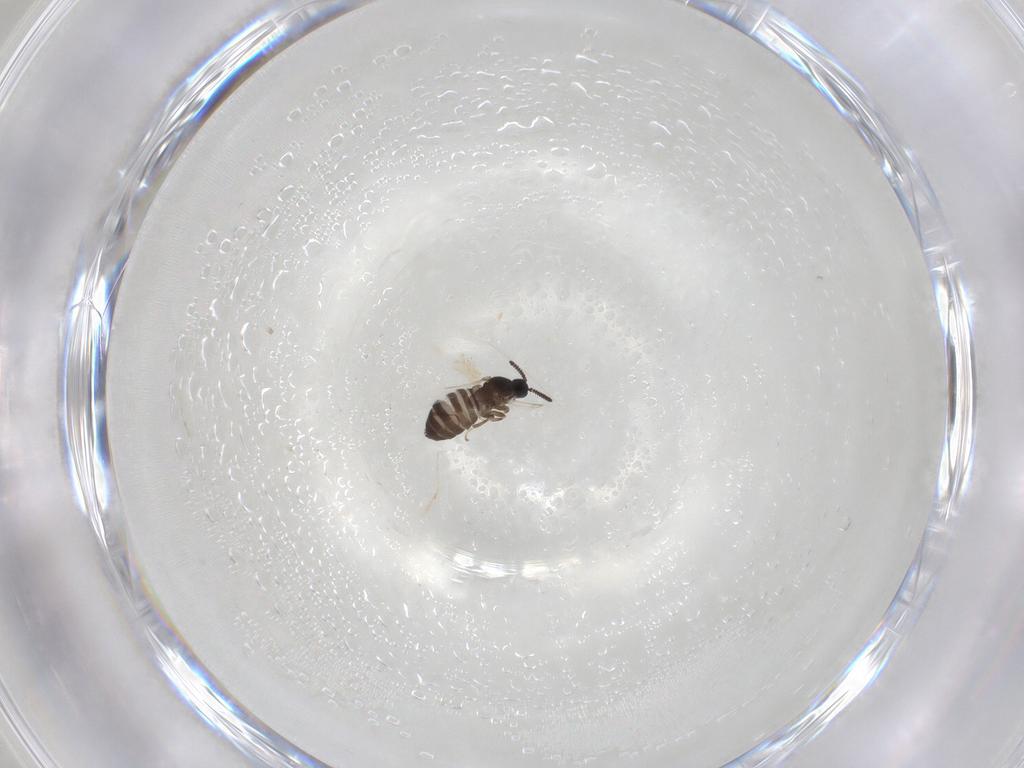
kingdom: Animalia
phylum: Arthropoda
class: Insecta
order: Diptera
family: Scatopsidae
